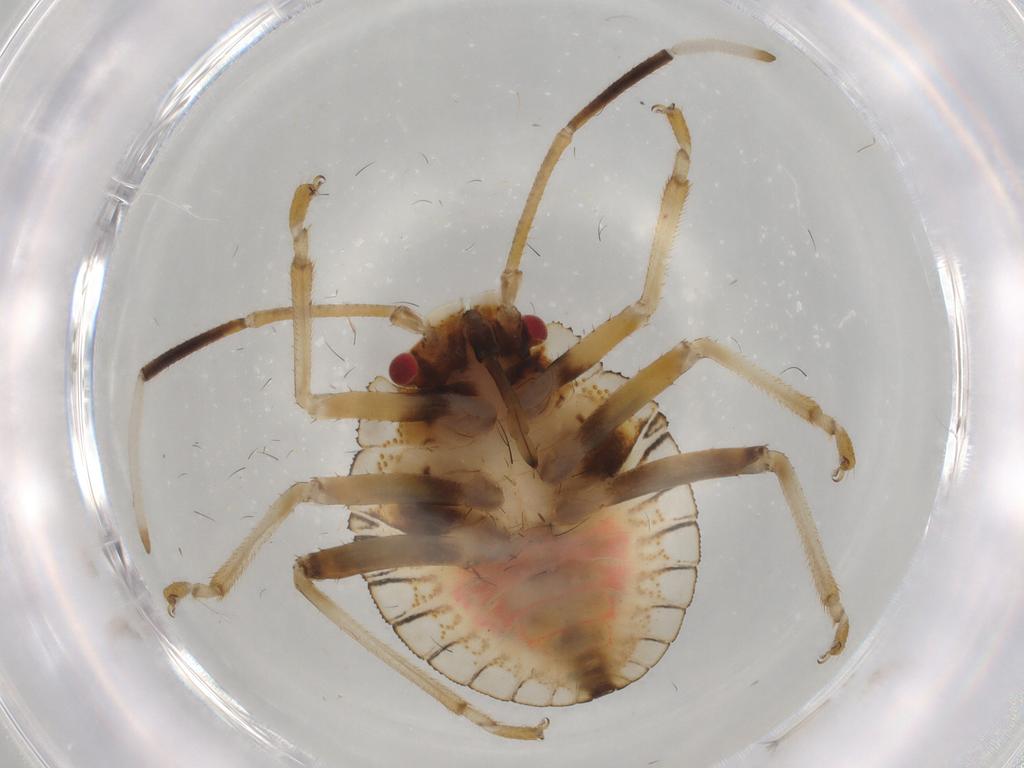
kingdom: Animalia
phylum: Arthropoda
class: Insecta
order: Hemiptera
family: Pentatomidae
